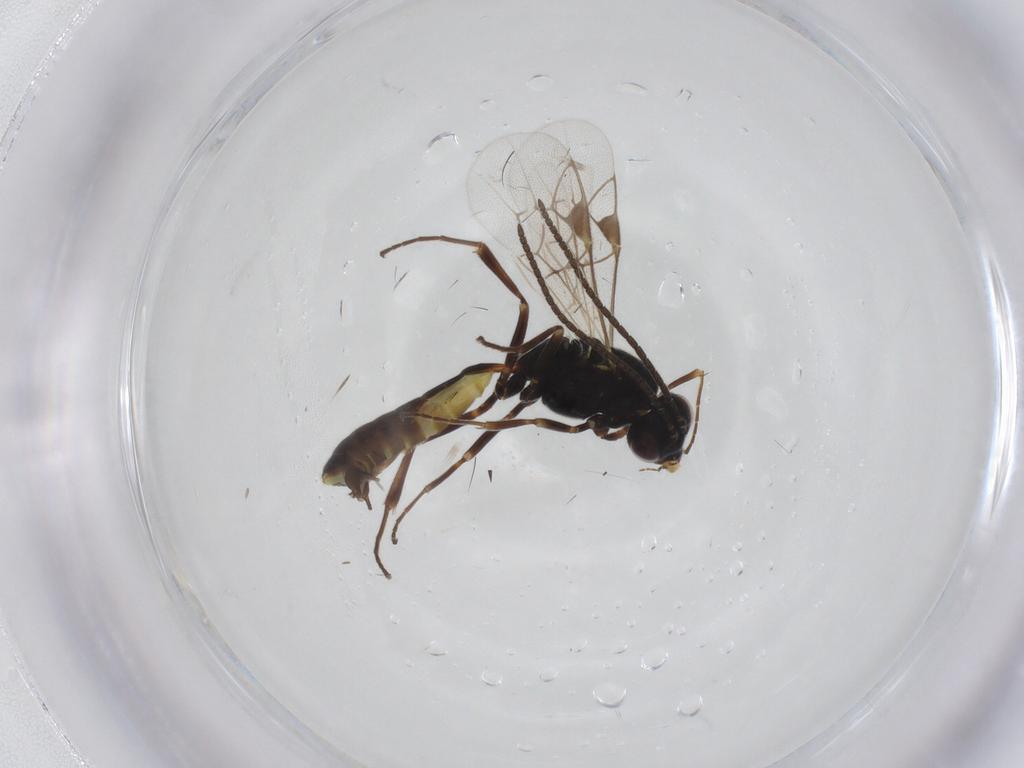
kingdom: Animalia
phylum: Arthropoda
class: Insecta
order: Hymenoptera
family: Ichneumonidae
